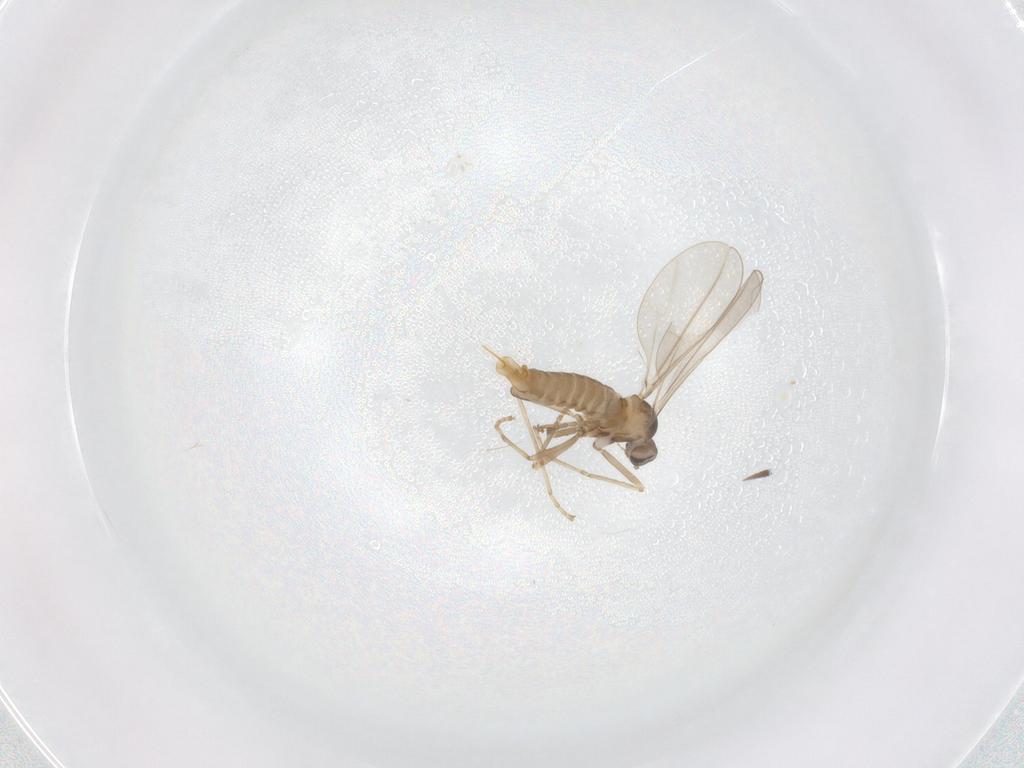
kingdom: Animalia
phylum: Arthropoda
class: Insecta
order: Diptera
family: Cecidomyiidae
